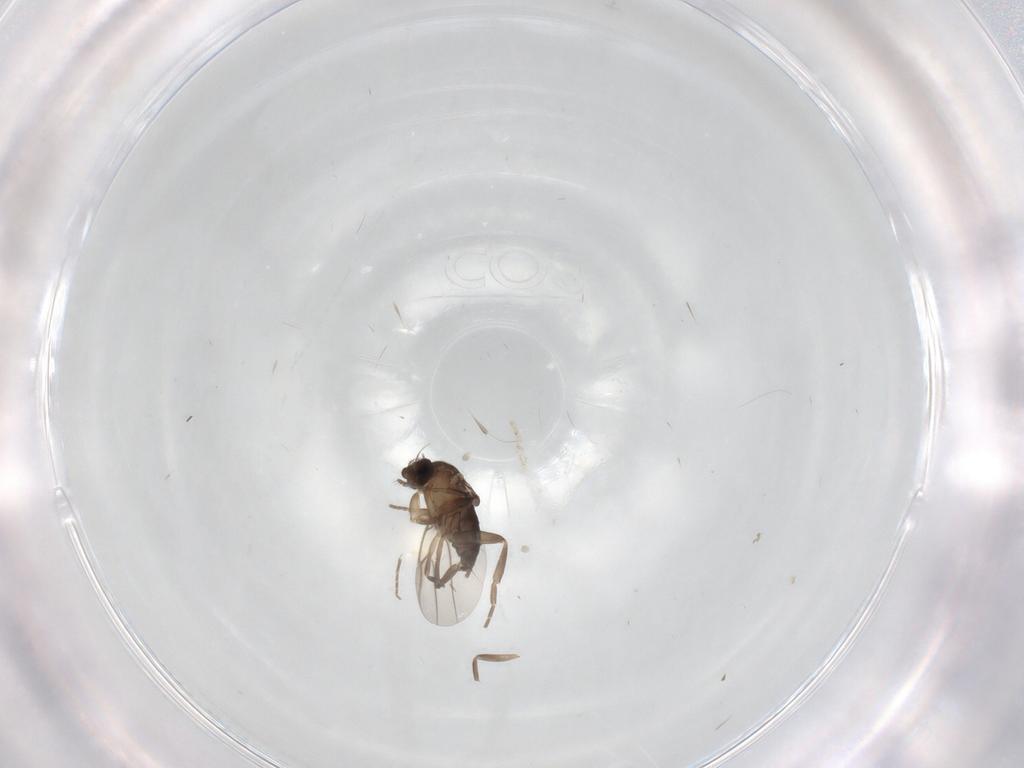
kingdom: Animalia
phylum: Arthropoda
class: Insecta
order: Diptera
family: Phoridae
